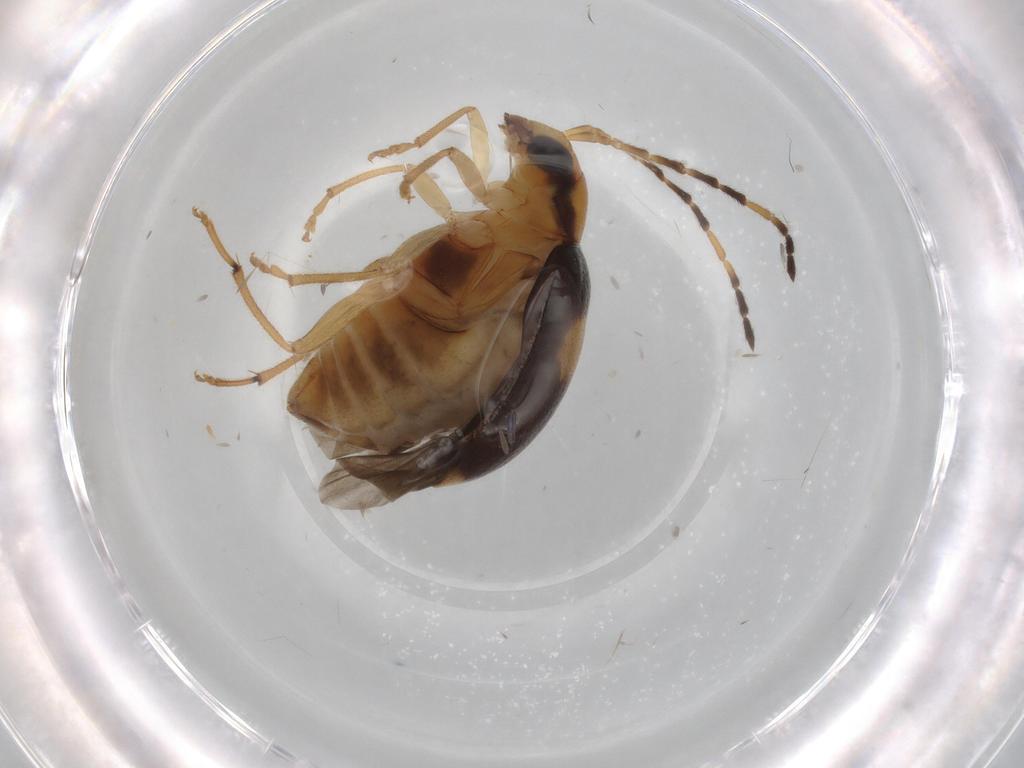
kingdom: Animalia
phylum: Arthropoda
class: Insecta
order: Coleoptera
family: Chrysomelidae
